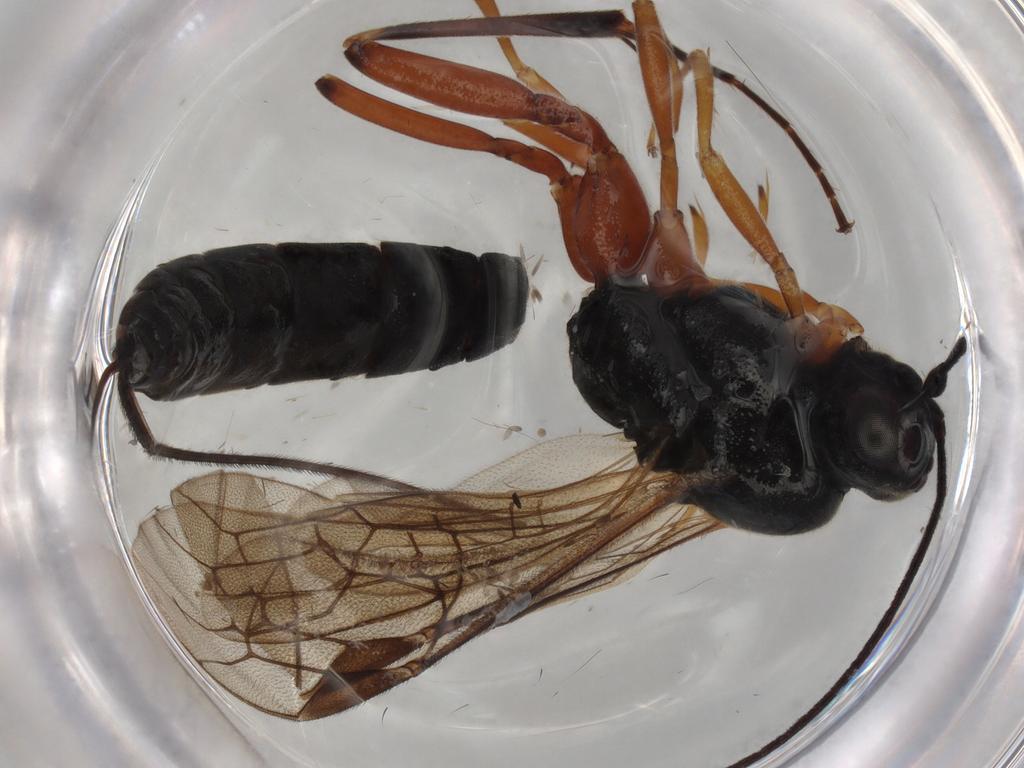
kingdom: Animalia
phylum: Arthropoda
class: Insecta
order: Hymenoptera
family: Ichneumonidae
